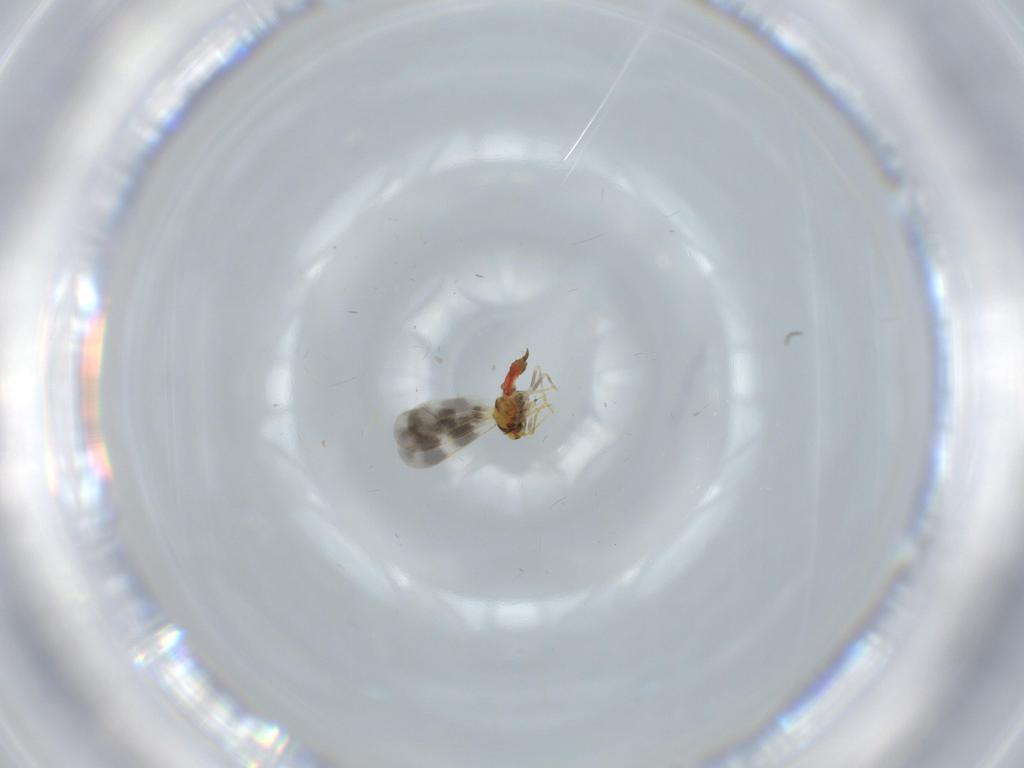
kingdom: Animalia
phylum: Arthropoda
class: Insecta
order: Hemiptera
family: Aleyrodidae
